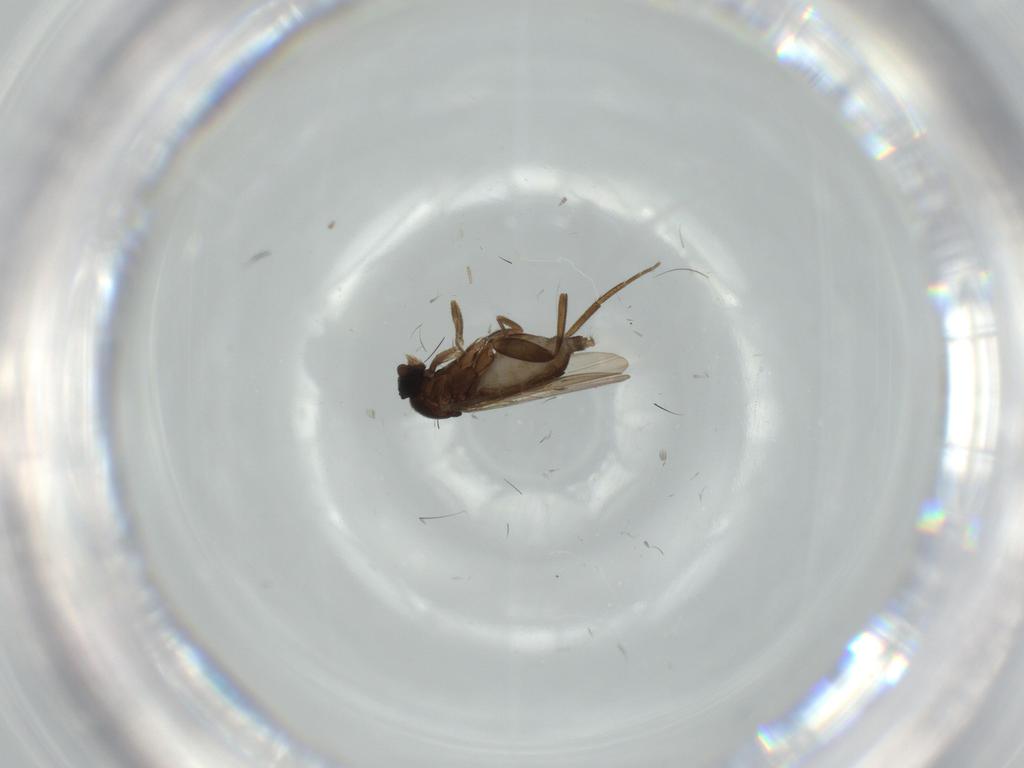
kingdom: Animalia
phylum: Arthropoda
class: Insecta
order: Diptera
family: Phoridae
